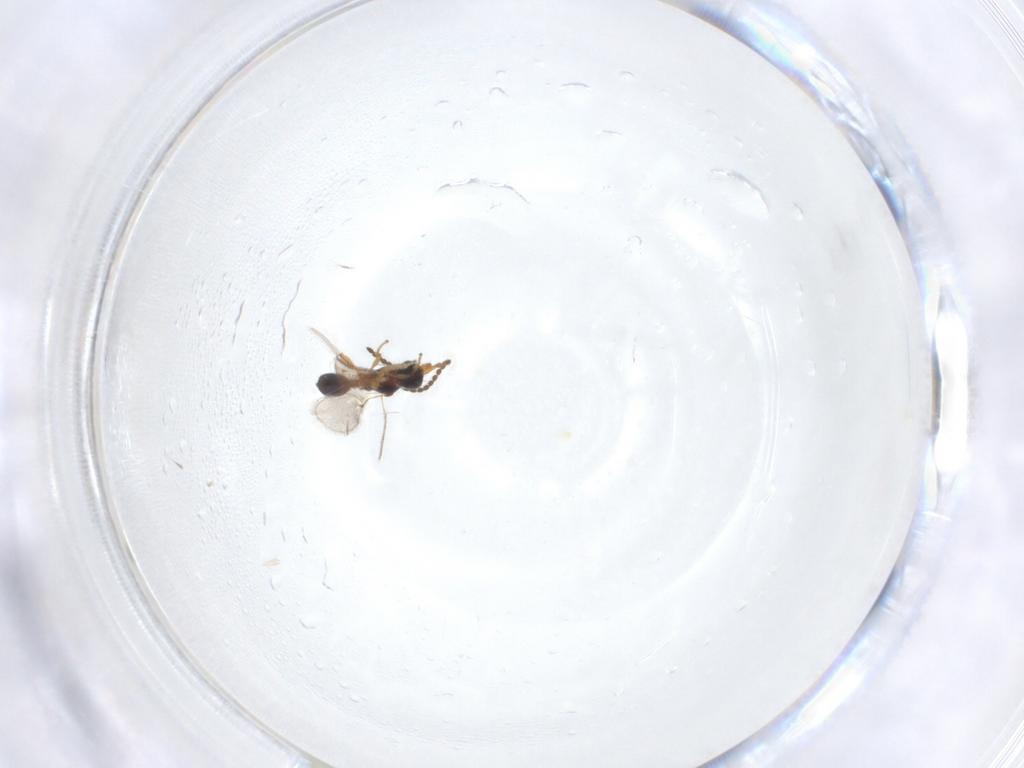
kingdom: Animalia
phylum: Arthropoda
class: Insecta
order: Hymenoptera
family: Diapriidae
